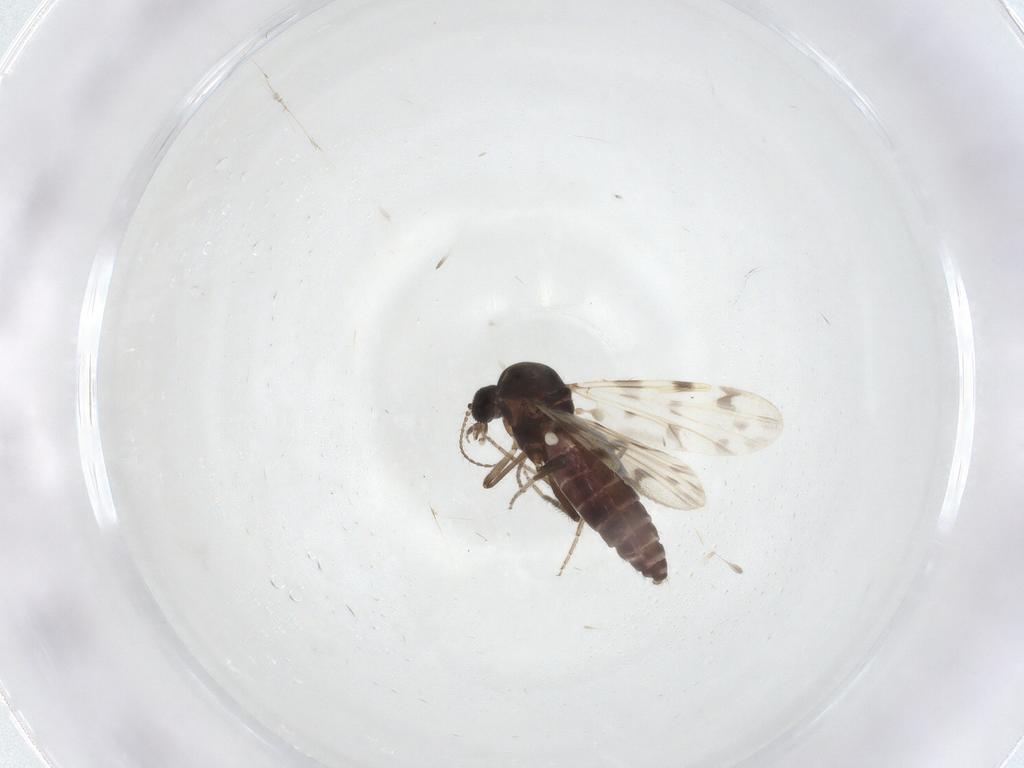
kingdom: Animalia
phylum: Arthropoda
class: Insecta
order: Diptera
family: Ceratopogonidae
